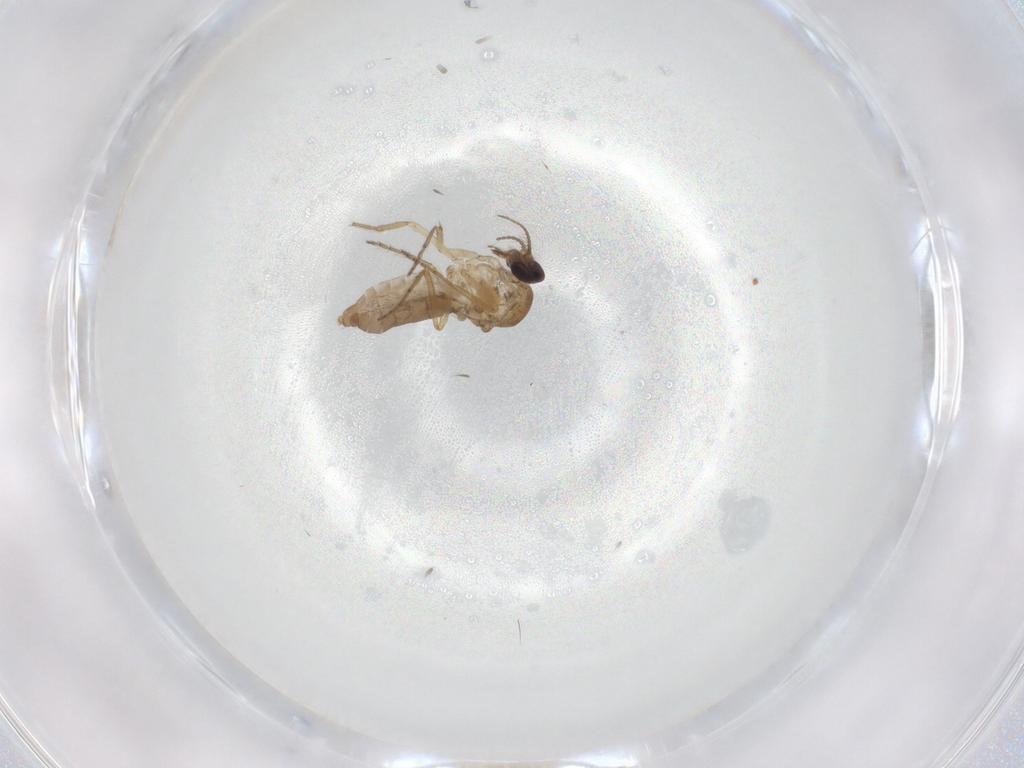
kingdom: Animalia
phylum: Arthropoda
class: Insecta
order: Diptera
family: Ceratopogonidae
